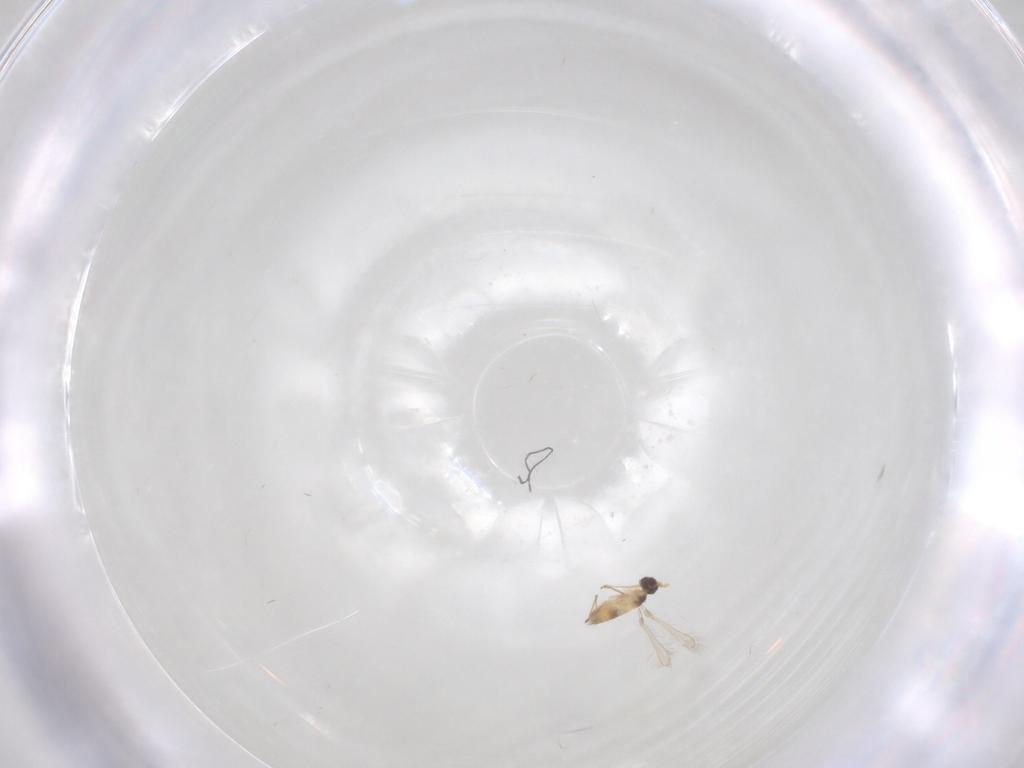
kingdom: Animalia
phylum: Arthropoda
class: Insecta
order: Hymenoptera
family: Mymaridae
